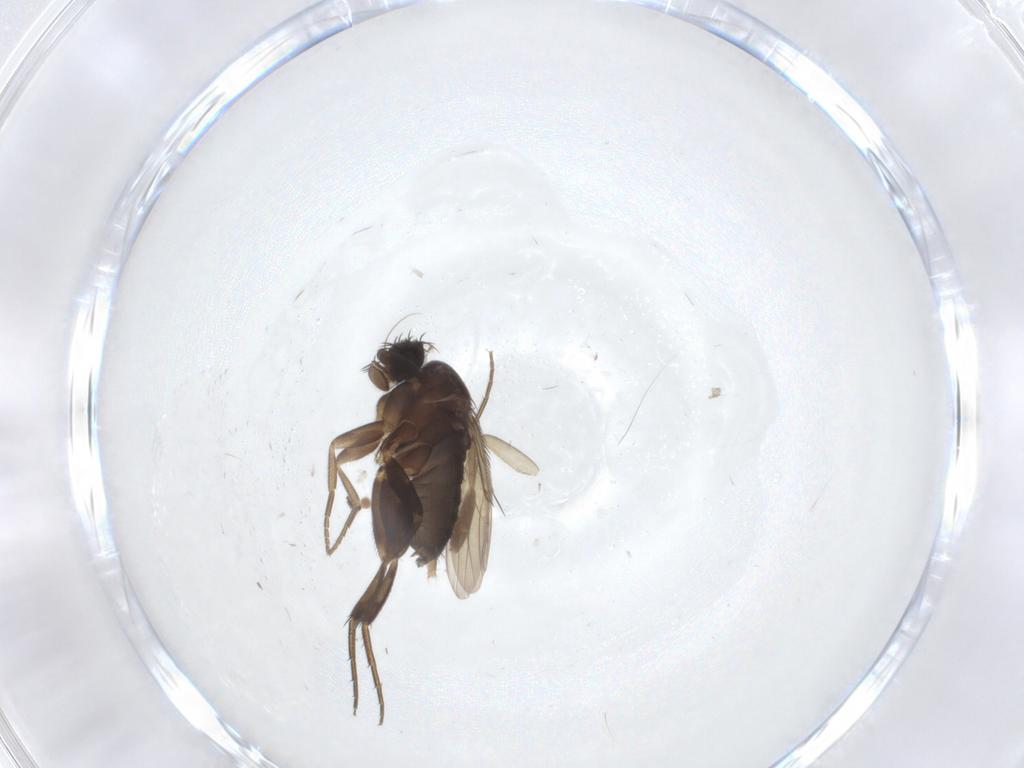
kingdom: Animalia
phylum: Arthropoda
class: Insecta
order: Diptera
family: Phoridae
